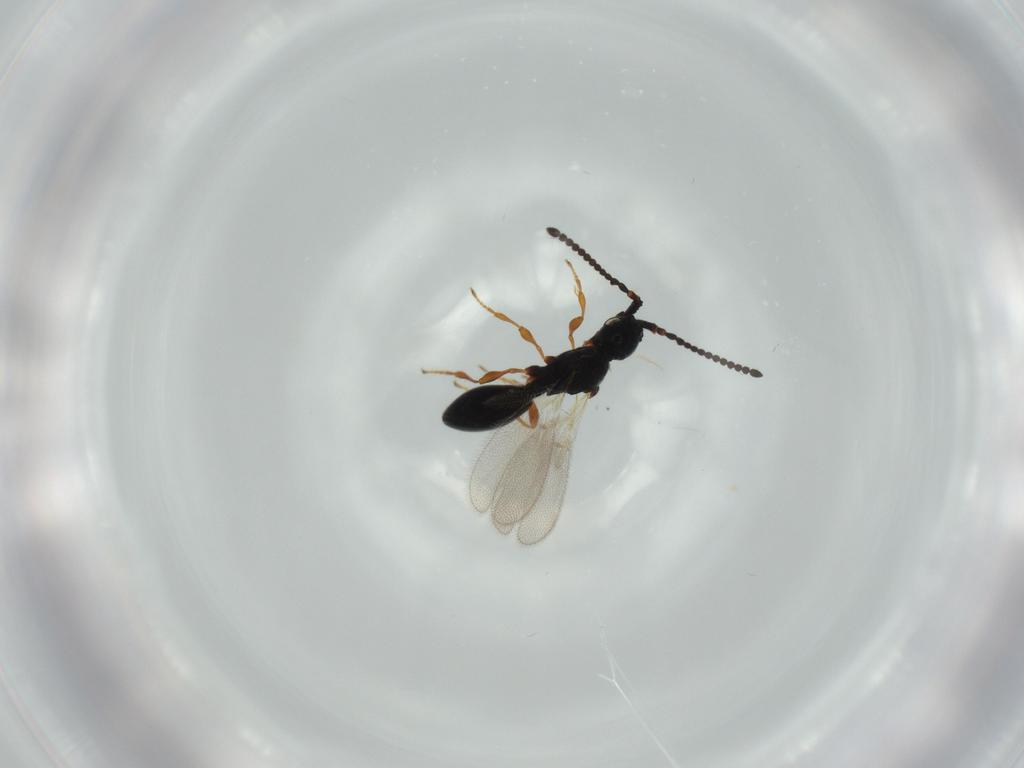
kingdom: Animalia
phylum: Arthropoda
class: Insecta
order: Hymenoptera
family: Diapriidae
